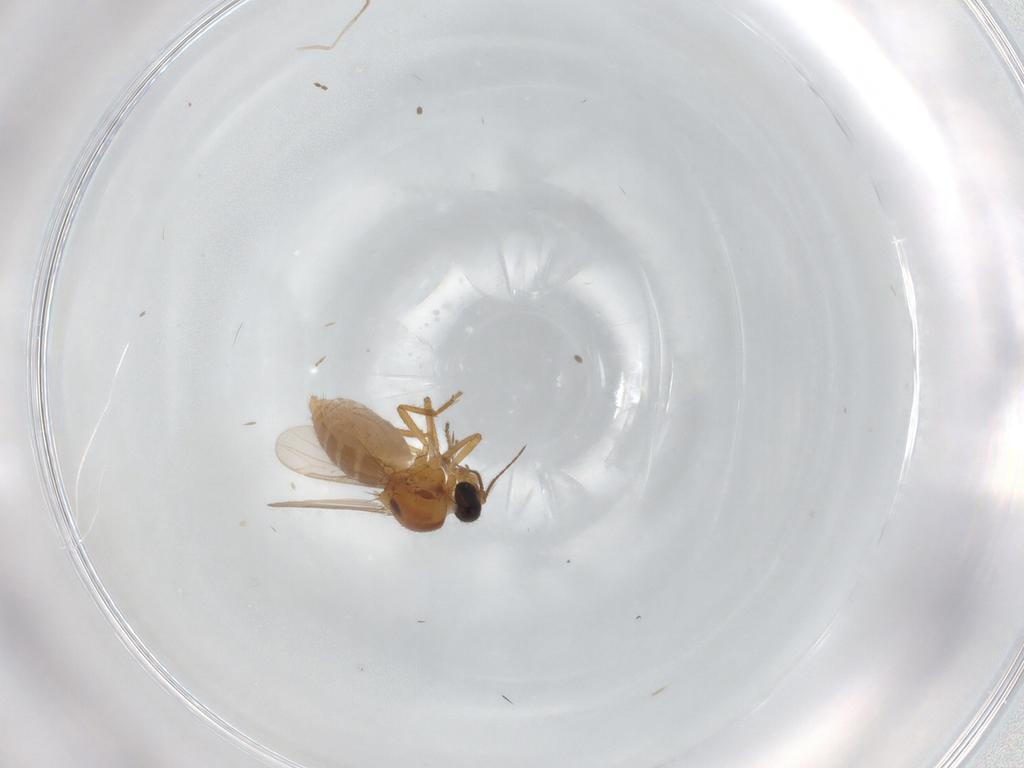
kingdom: Animalia
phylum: Arthropoda
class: Insecta
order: Diptera
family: Ceratopogonidae
